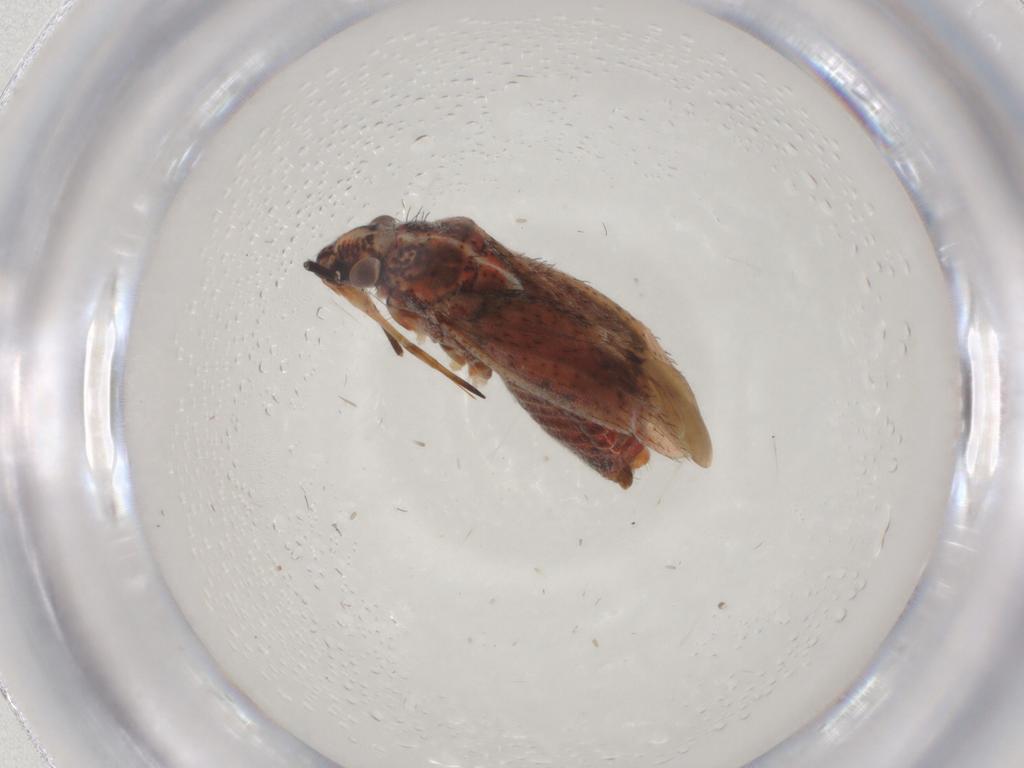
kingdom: Animalia
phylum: Arthropoda
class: Insecta
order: Hemiptera
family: Miridae
